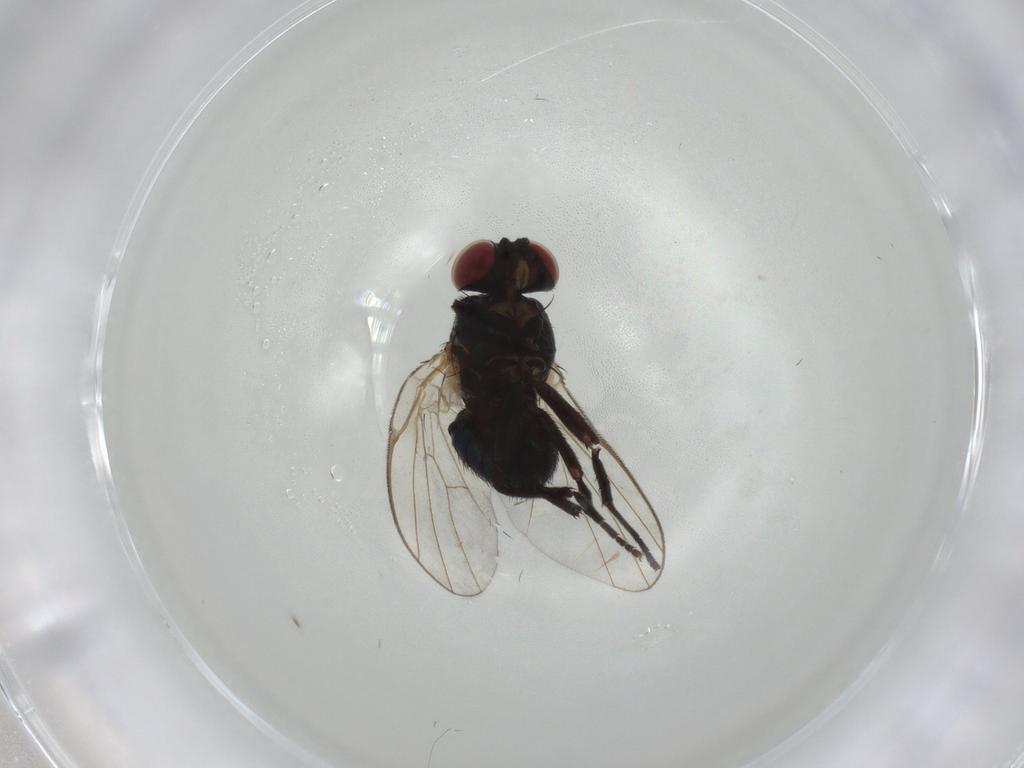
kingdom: Animalia
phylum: Arthropoda
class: Insecta
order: Diptera
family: Agromyzidae
